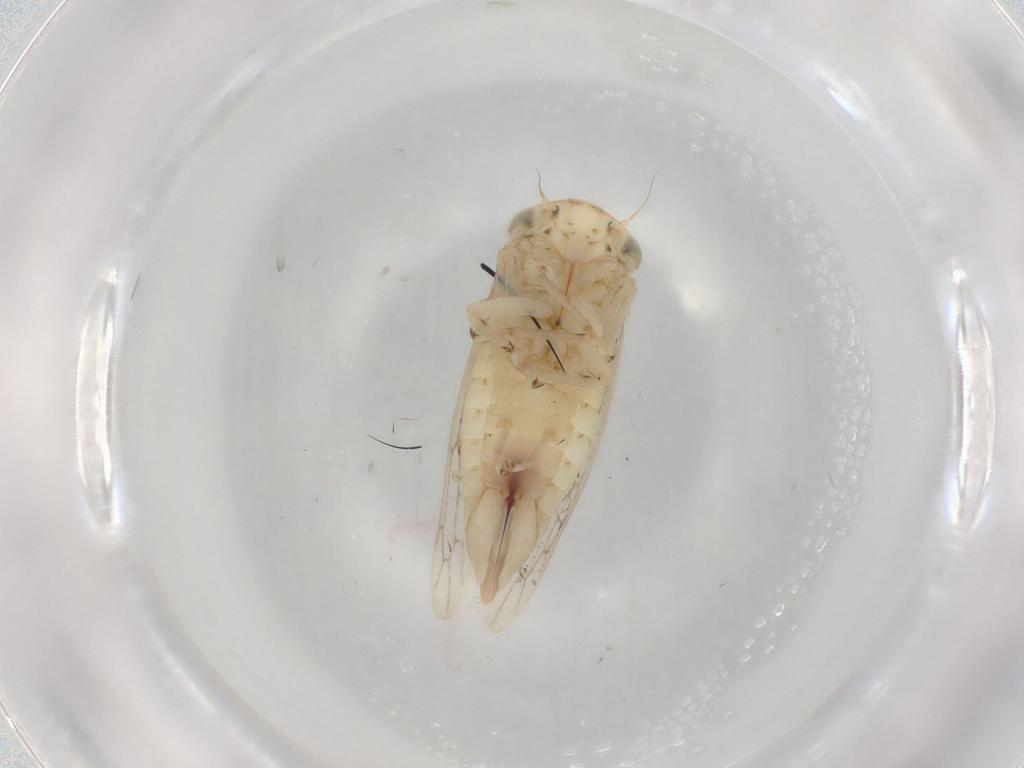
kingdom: Animalia
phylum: Arthropoda
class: Insecta
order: Hemiptera
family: Cicadellidae
